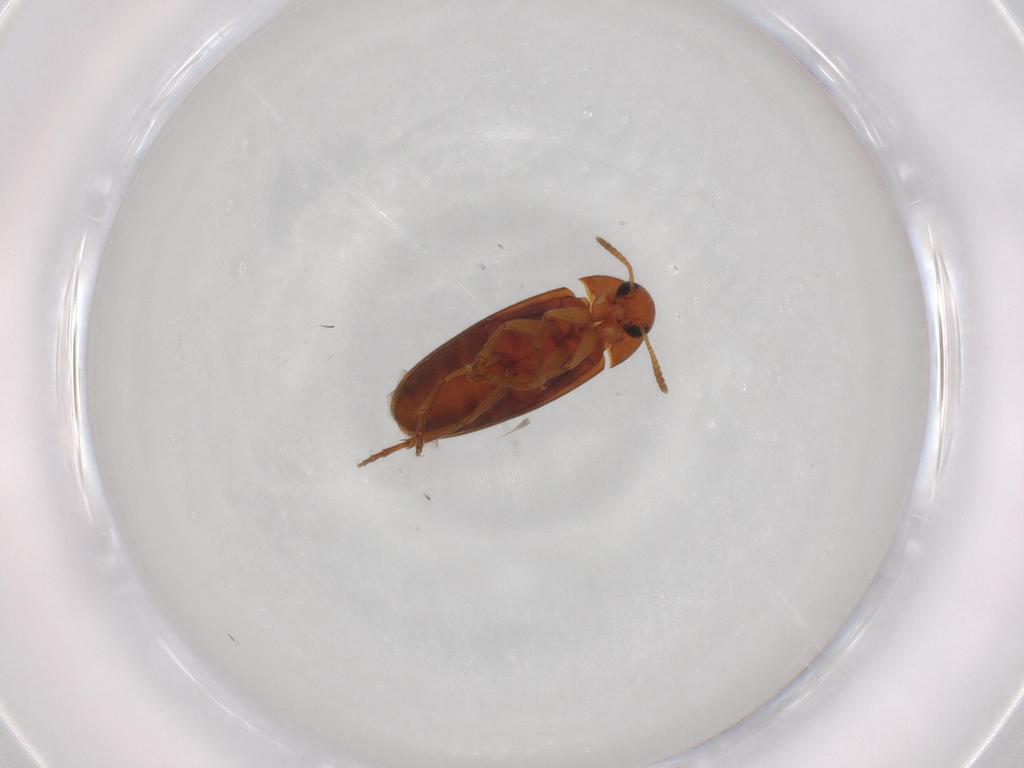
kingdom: Animalia
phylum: Arthropoda
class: Insecta
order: Coleoptera
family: Scraptiidae
